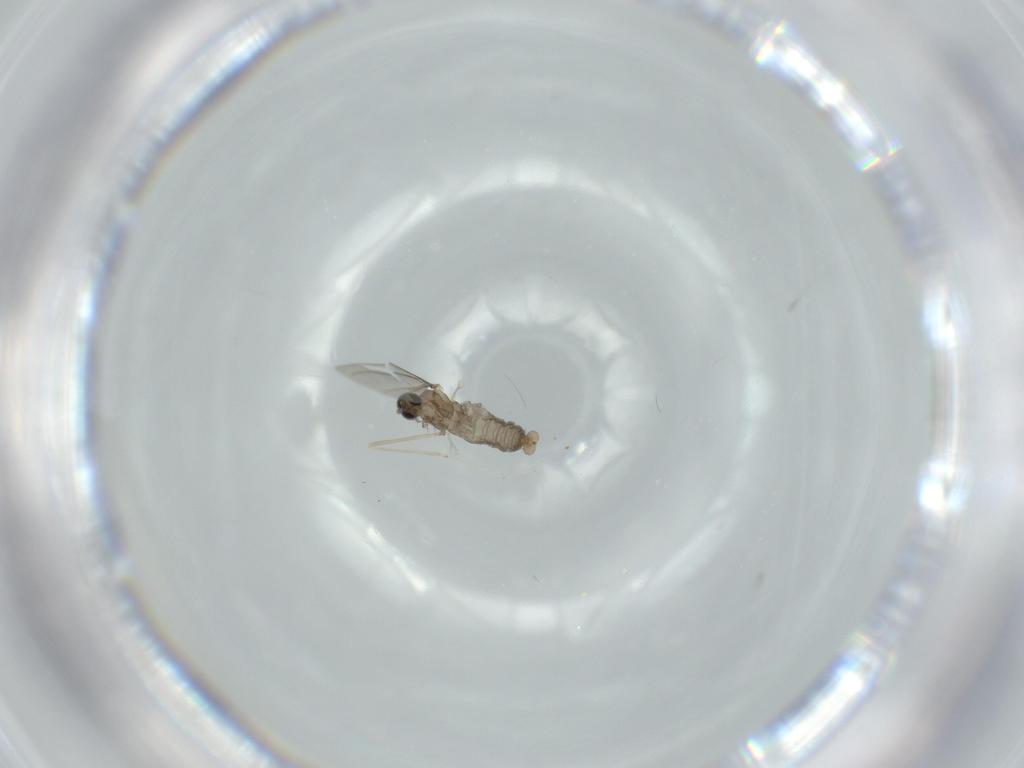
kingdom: Animalia
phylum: Arthropoda
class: Insecta
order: Diptera
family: Cecidomyiidae
